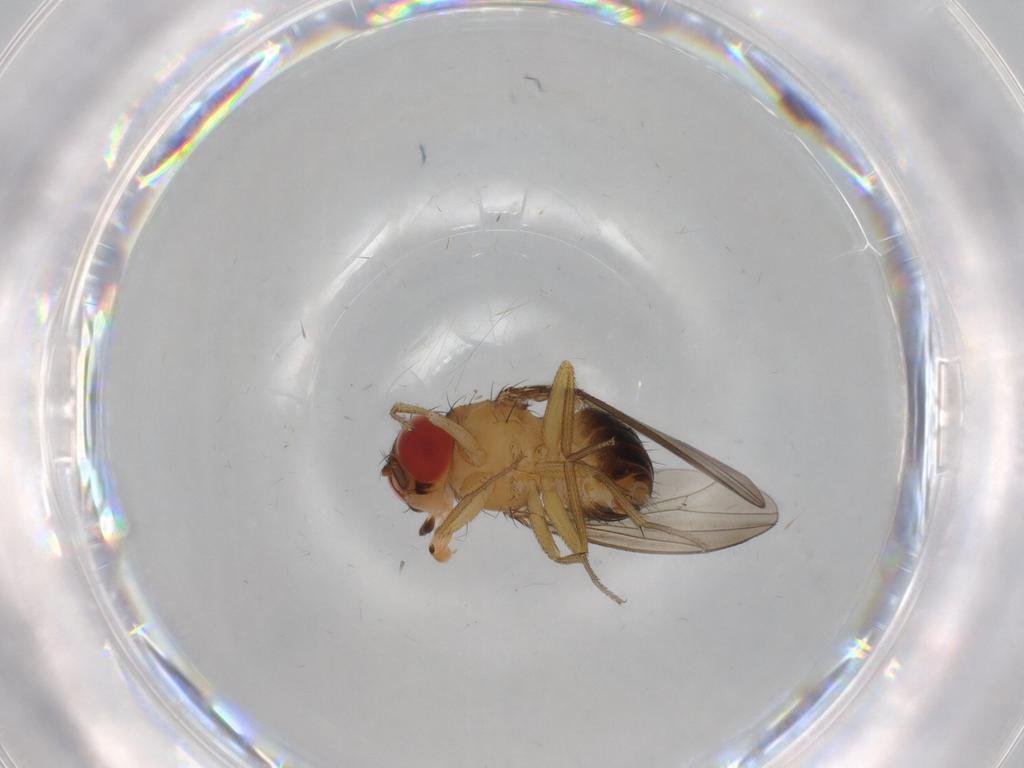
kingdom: Animalia
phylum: Arthropoda
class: Insecta
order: Diptera
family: Drosophilidae
